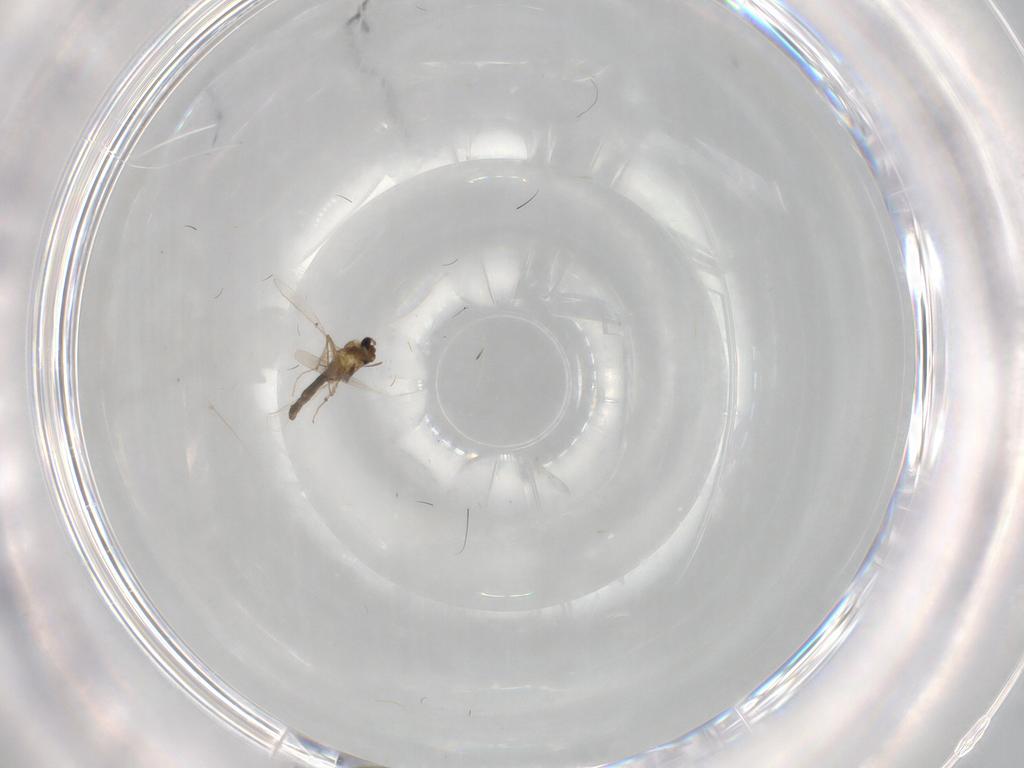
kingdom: Animalia
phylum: Arthropoda
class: Insecta
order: Diptera
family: Chironomidae
